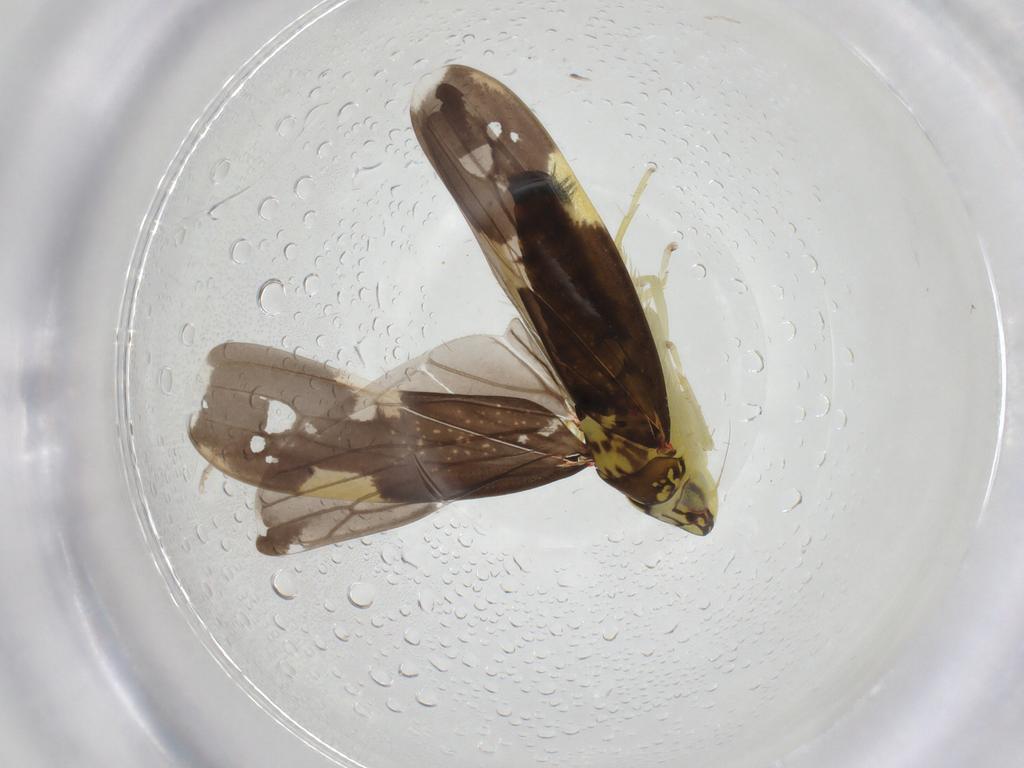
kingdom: Animalia
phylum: Arthropoda
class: Insecta
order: Hemiptera
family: Cicadellidae
